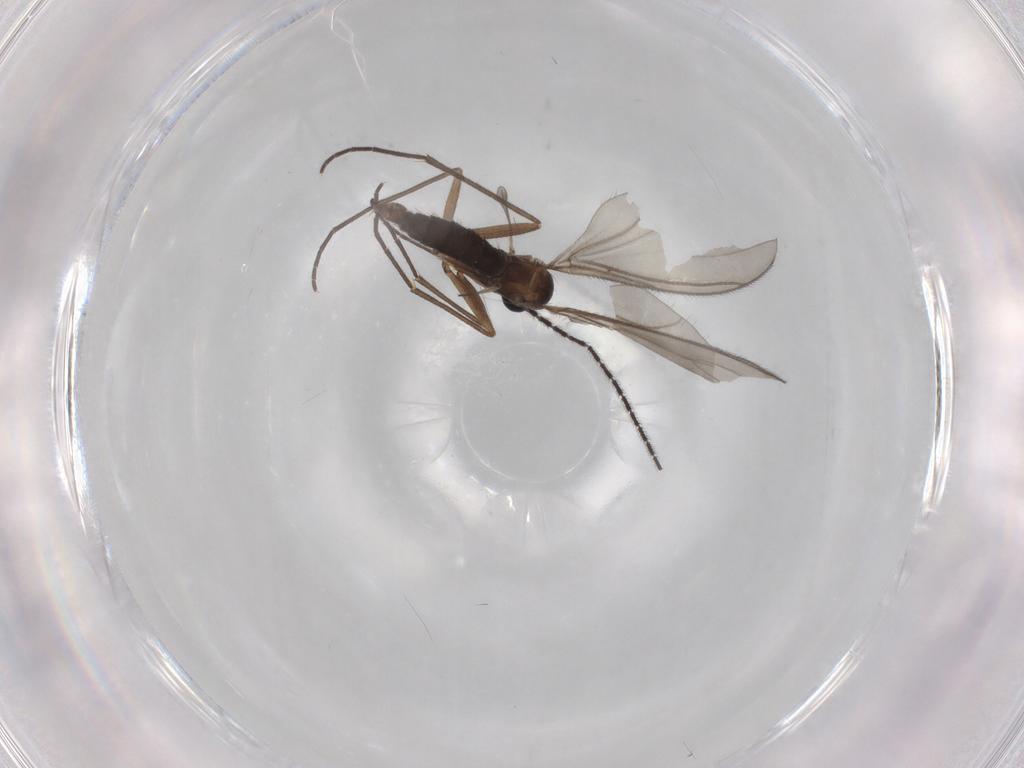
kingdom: Animalia
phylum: Arthropoda
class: Insecta
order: Diptera
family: Sciaridae
